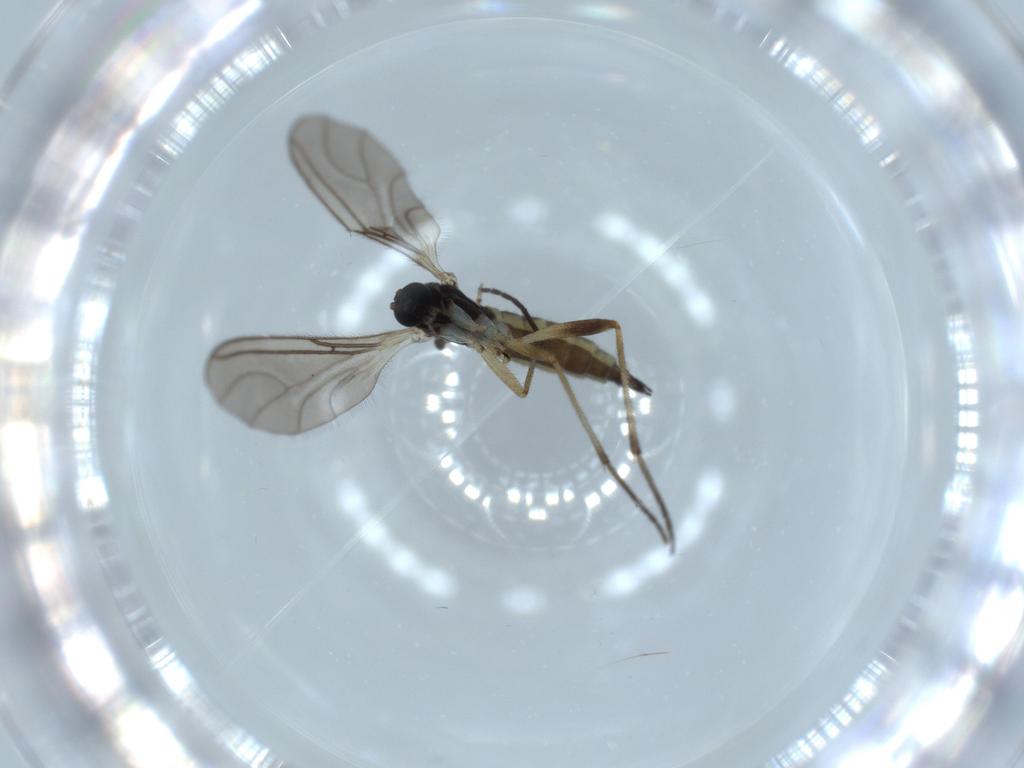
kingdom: Animalia
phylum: Arthropoda
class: Insecta
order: Diptera
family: Sciaridae
